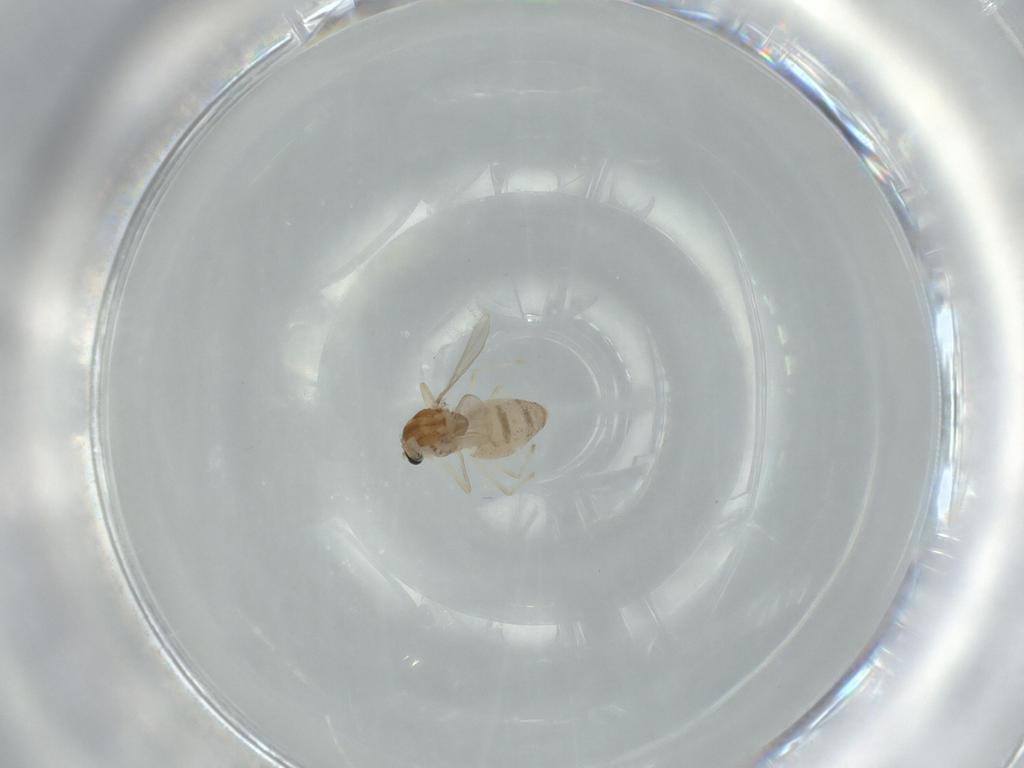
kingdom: Animalia
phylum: Arthropoda
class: Insecta
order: Diptera
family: Chironomidae
